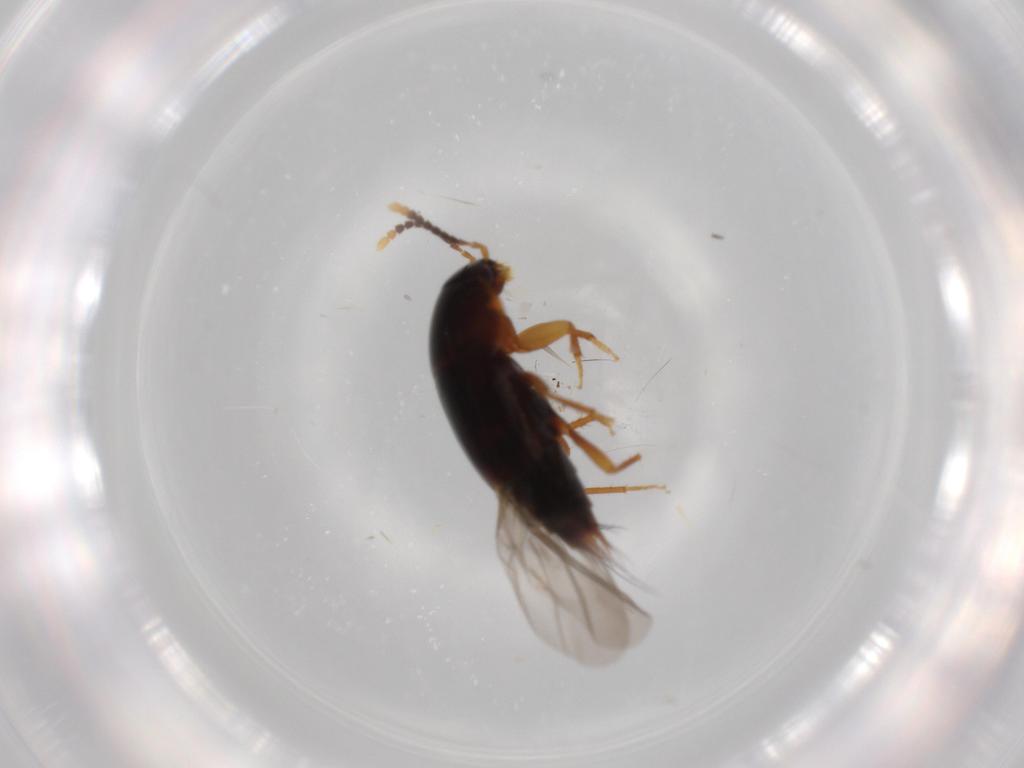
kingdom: Animalia
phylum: Arthropoda
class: Insecta
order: Coleoptera
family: Staphylinidae
